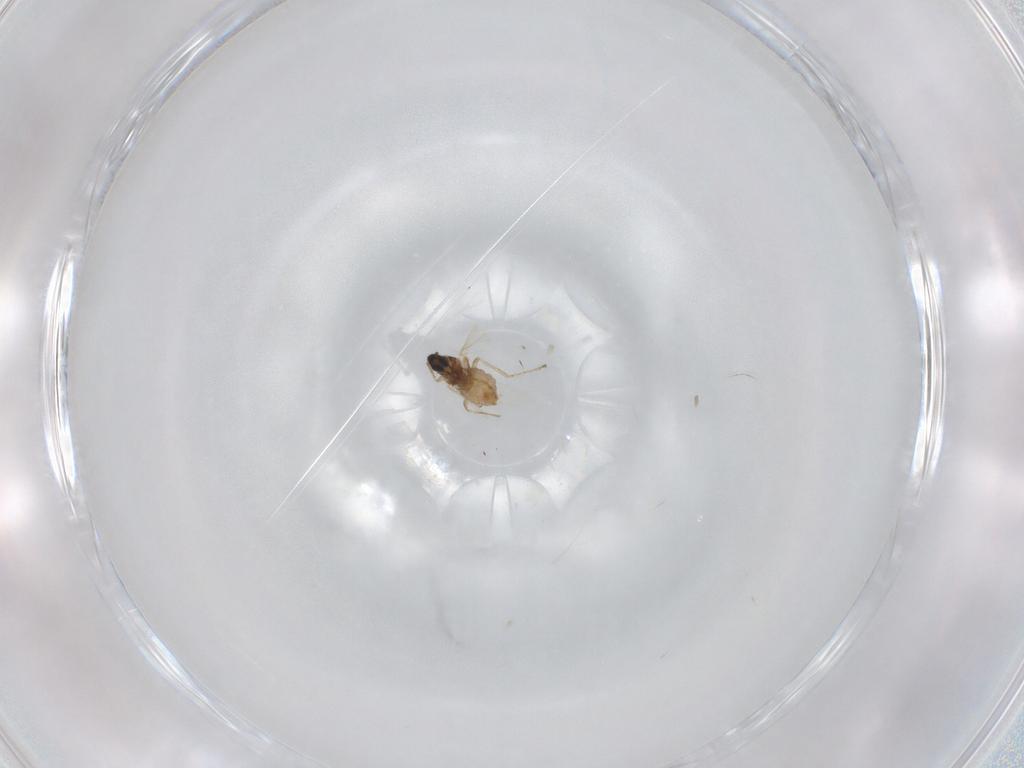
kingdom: Animalia
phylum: Arthropoda
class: Insecta
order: Diptera
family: Cecidomyiidae
